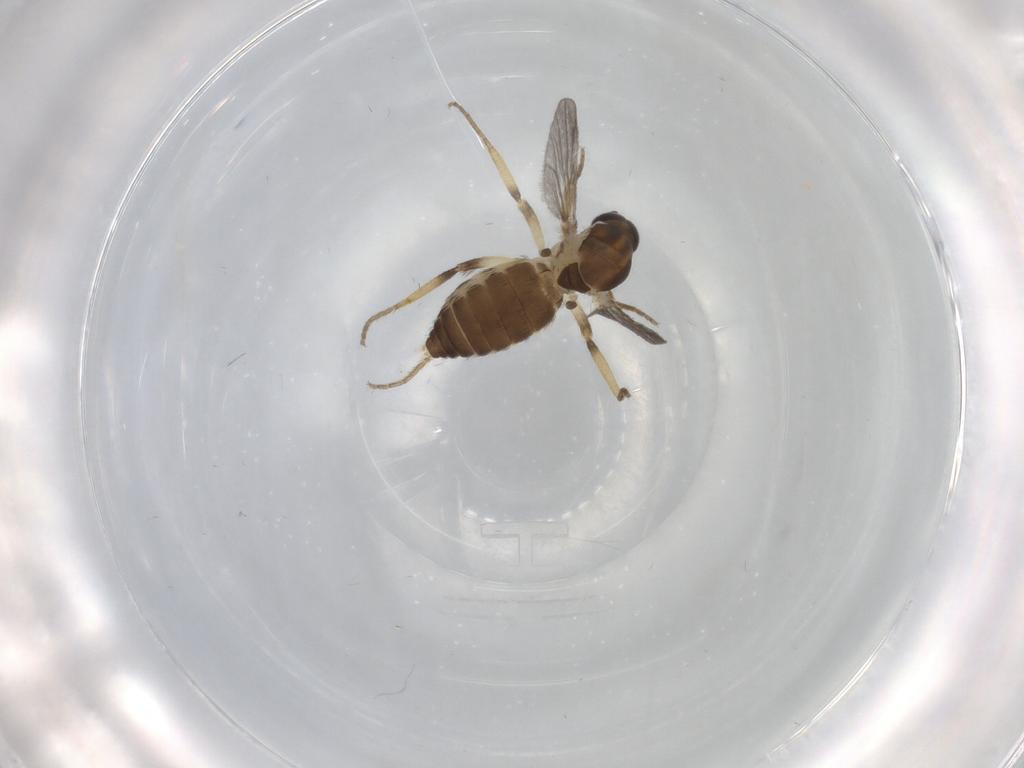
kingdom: Animalia
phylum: Arthropoda
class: Insecta
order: Diptera
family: Ceratopogonidae
